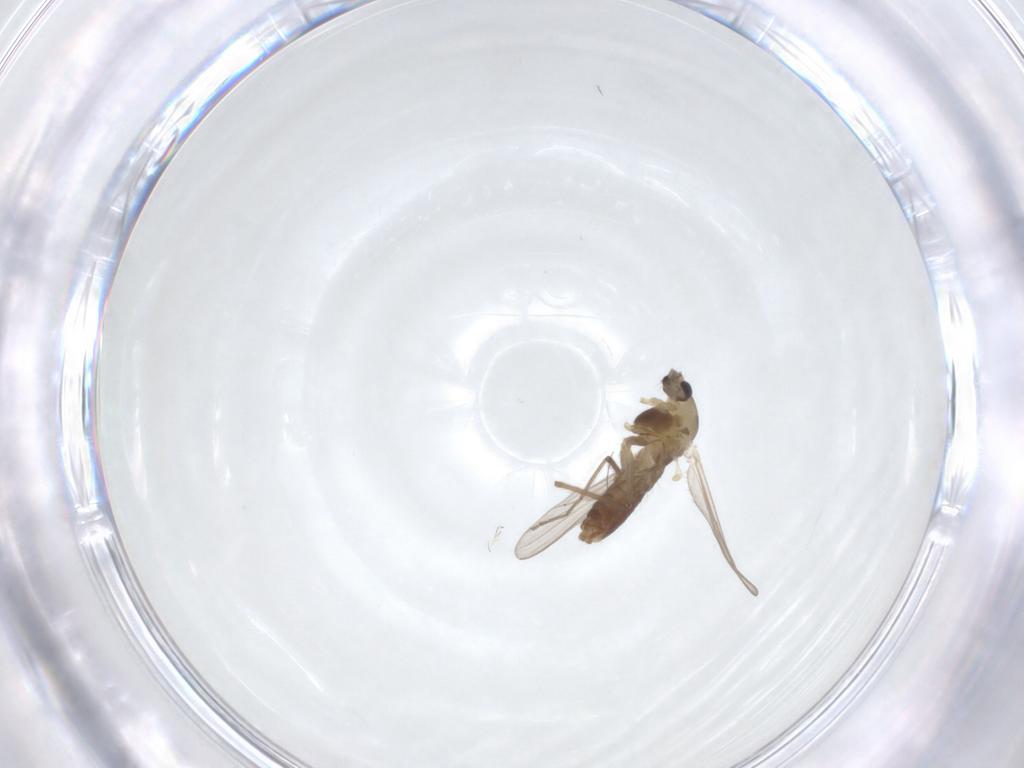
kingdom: Animalia
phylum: Arthropoda
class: Insecta
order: Diptera
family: Chironomidae
